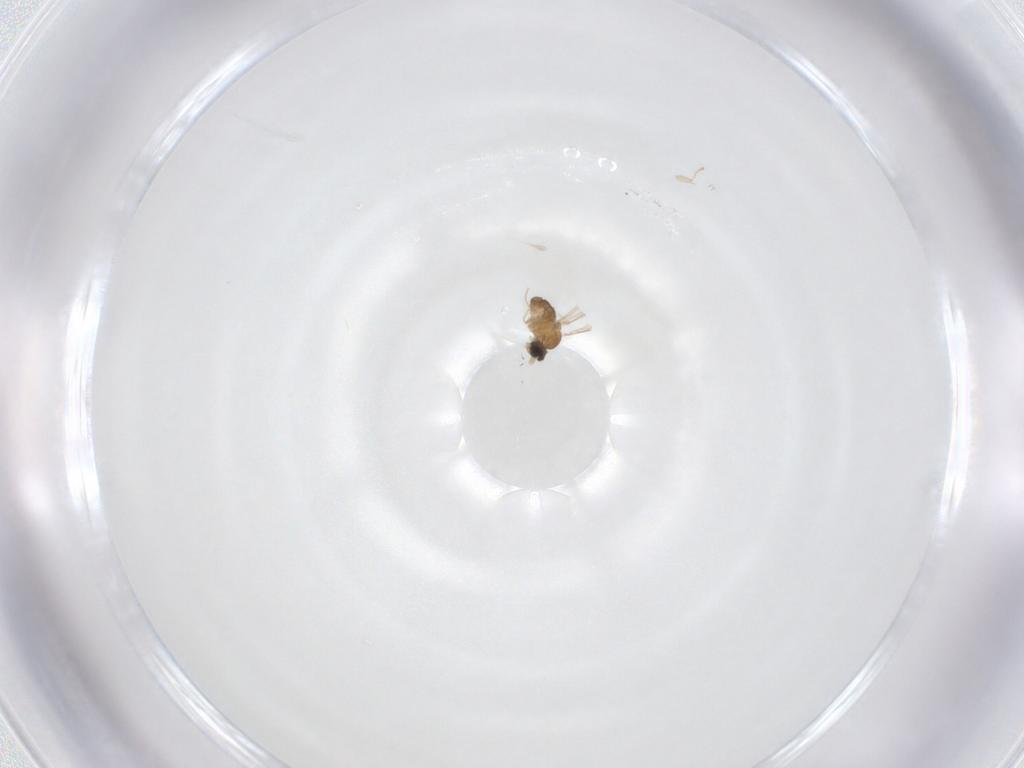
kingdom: Animalia
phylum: Arthropoda
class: Insecta
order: Diptera
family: Cecidomyiidae
